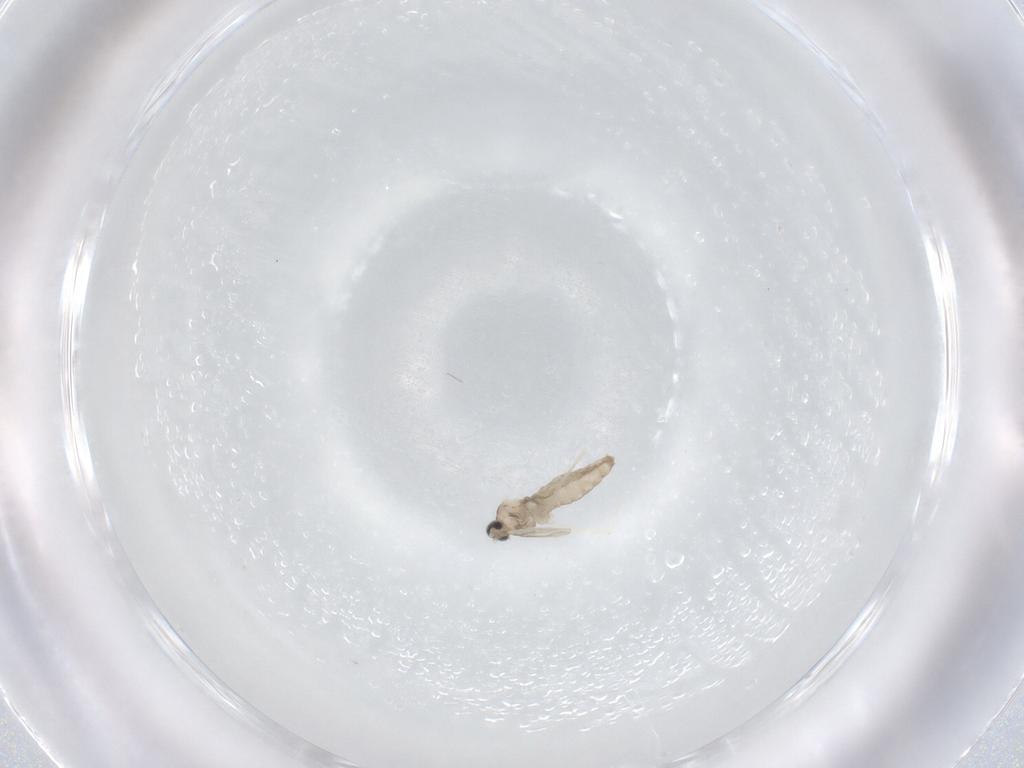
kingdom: Animalia
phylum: Arthropoda
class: Insecta
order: Diptera
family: Cecidomyiidae
